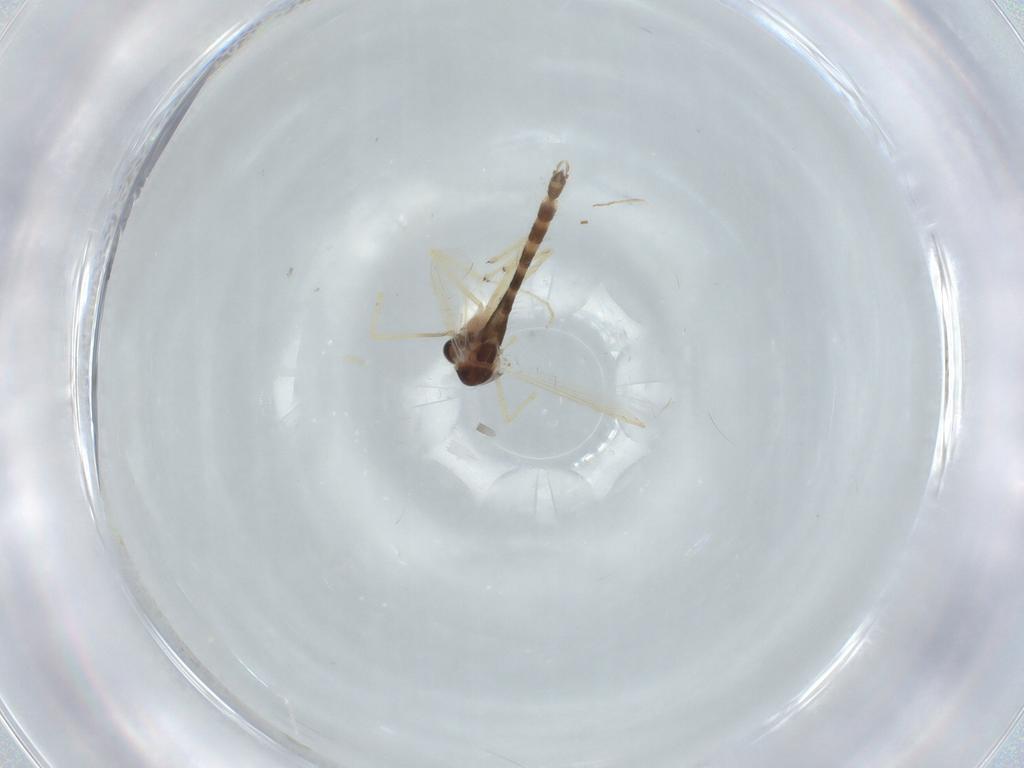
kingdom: Animalia
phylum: Arthropoda
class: Insecta
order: Diptera
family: Chironomidae
